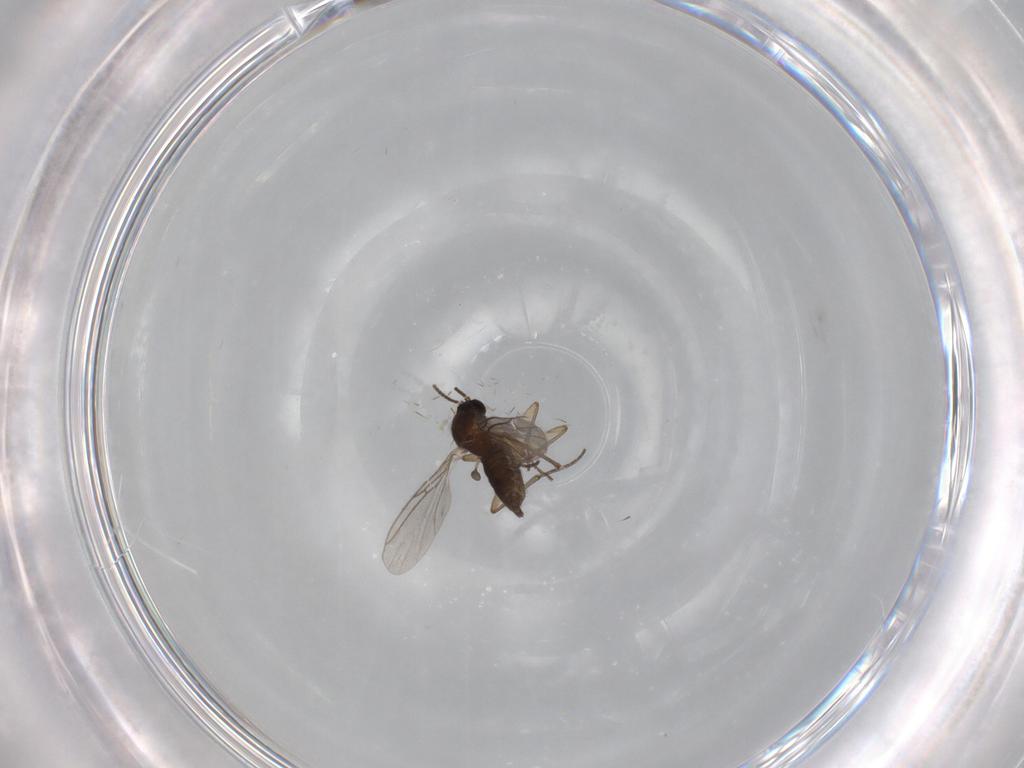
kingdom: Animalia
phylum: Arthropoda
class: Insecta
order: Diptera
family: Sciaridae
